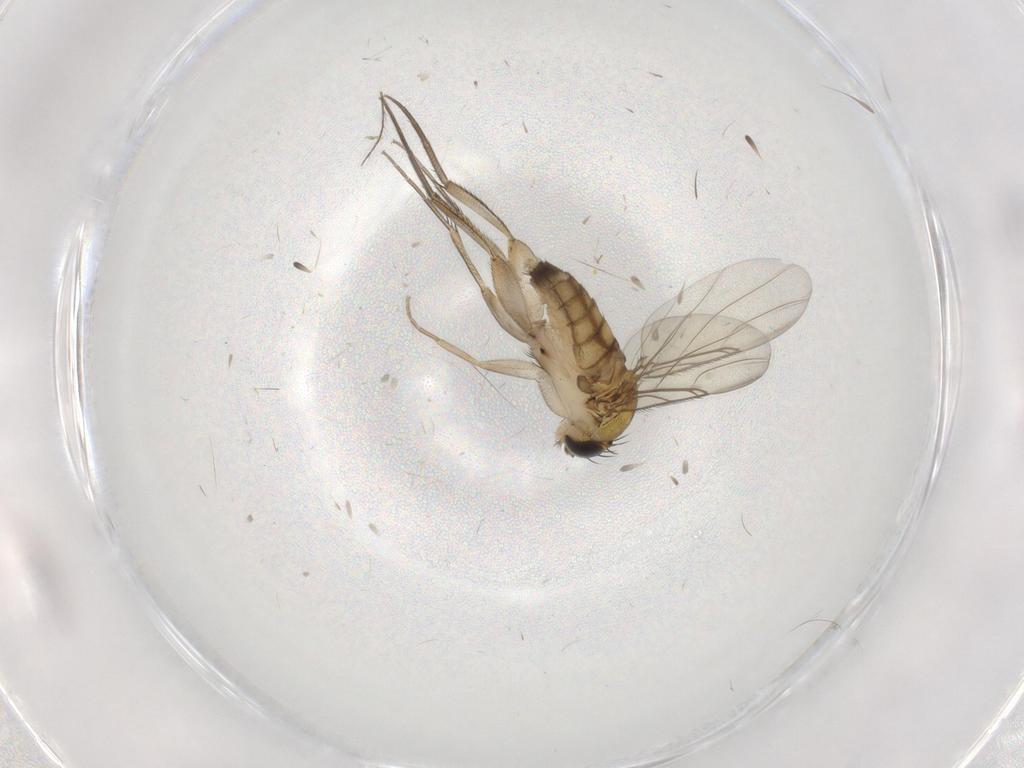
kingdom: Animalia
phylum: Arthropoda
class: Insecta
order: Diptera
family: Phoridae
